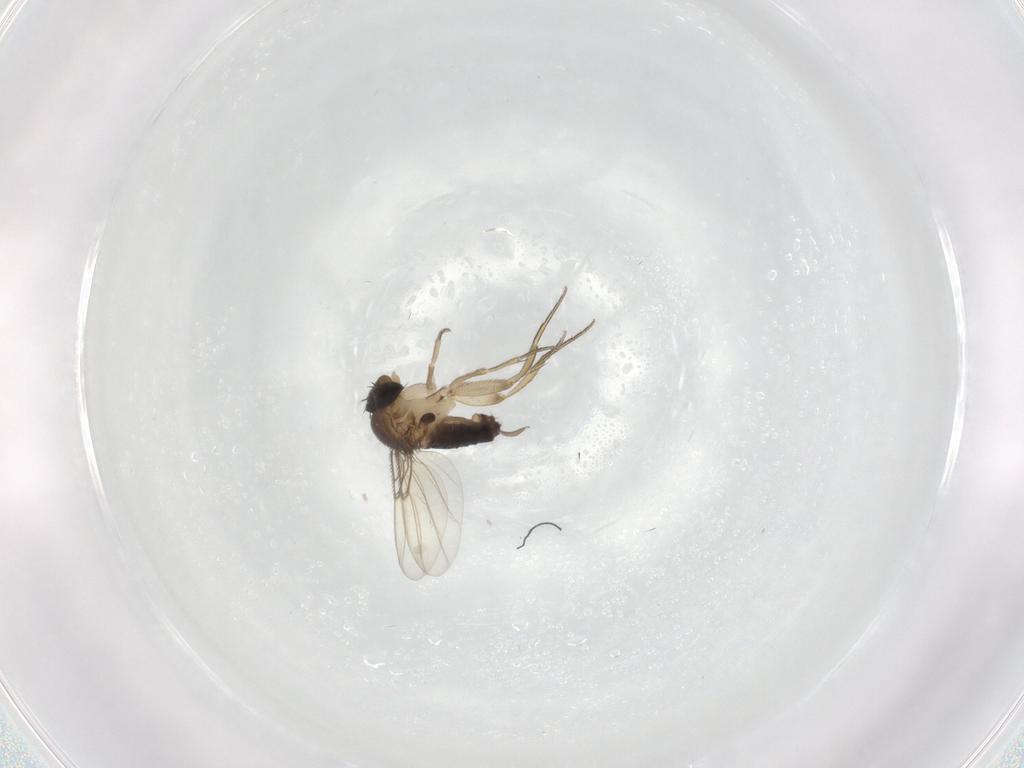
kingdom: Animalia
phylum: Arthropoda
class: Insecta
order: Diptera
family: Phoridae
